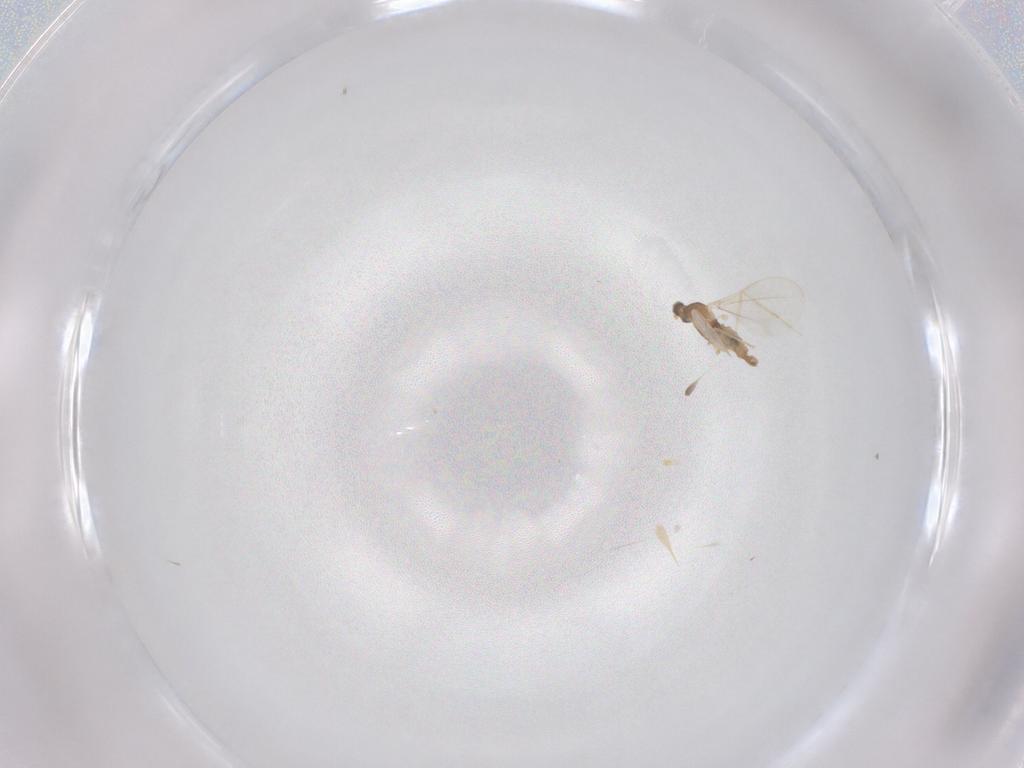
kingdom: Animalia
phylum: Arthropoda
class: Insecta
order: Diptera
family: Cecidomyiidae
